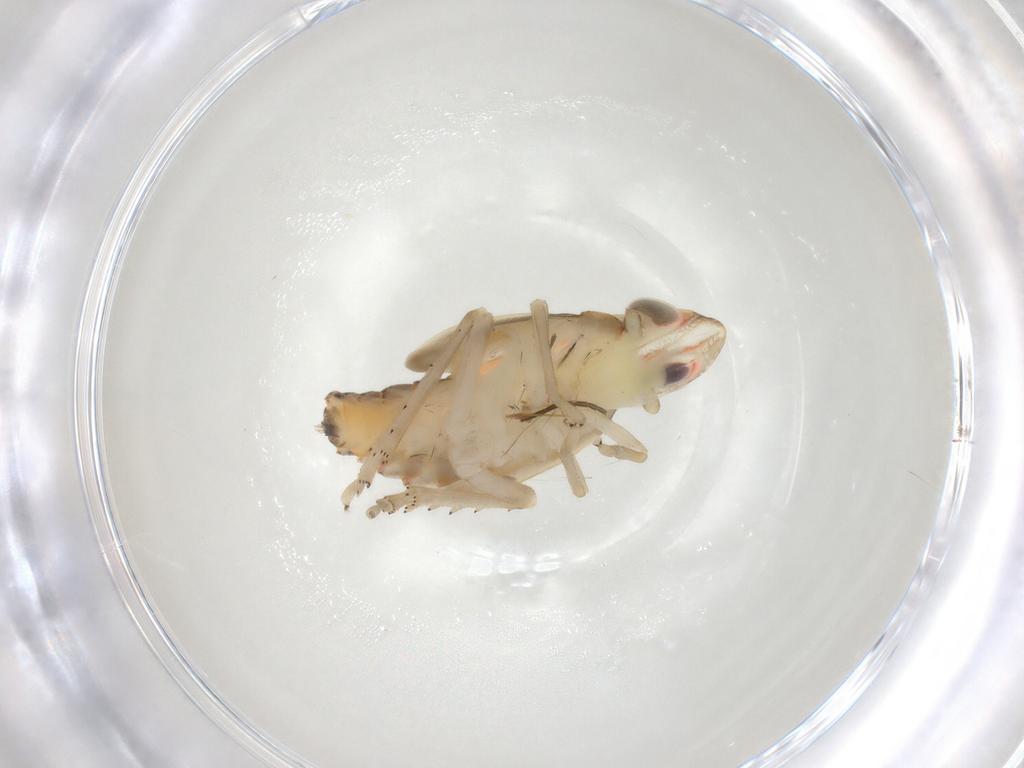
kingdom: Animalia
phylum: Arthropoda
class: Insecta
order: Hemiptera
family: Tropiduchidae
